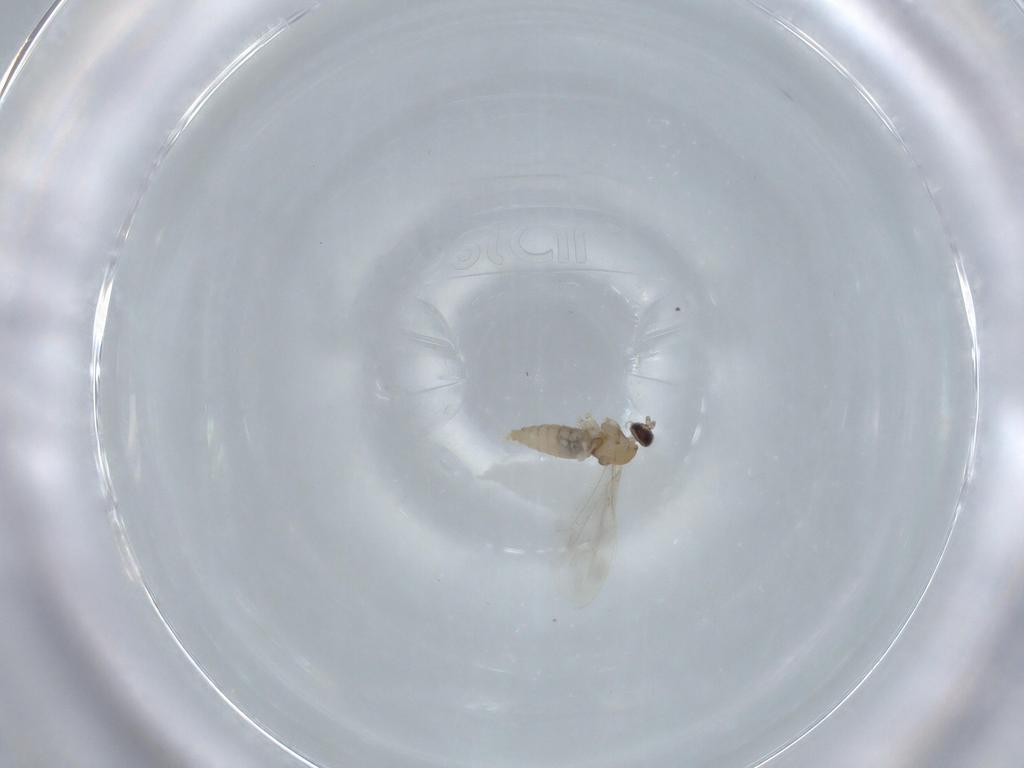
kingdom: Animalia
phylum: Arthropoda
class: Insecta
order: Diptera
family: Cecidomyiidae
